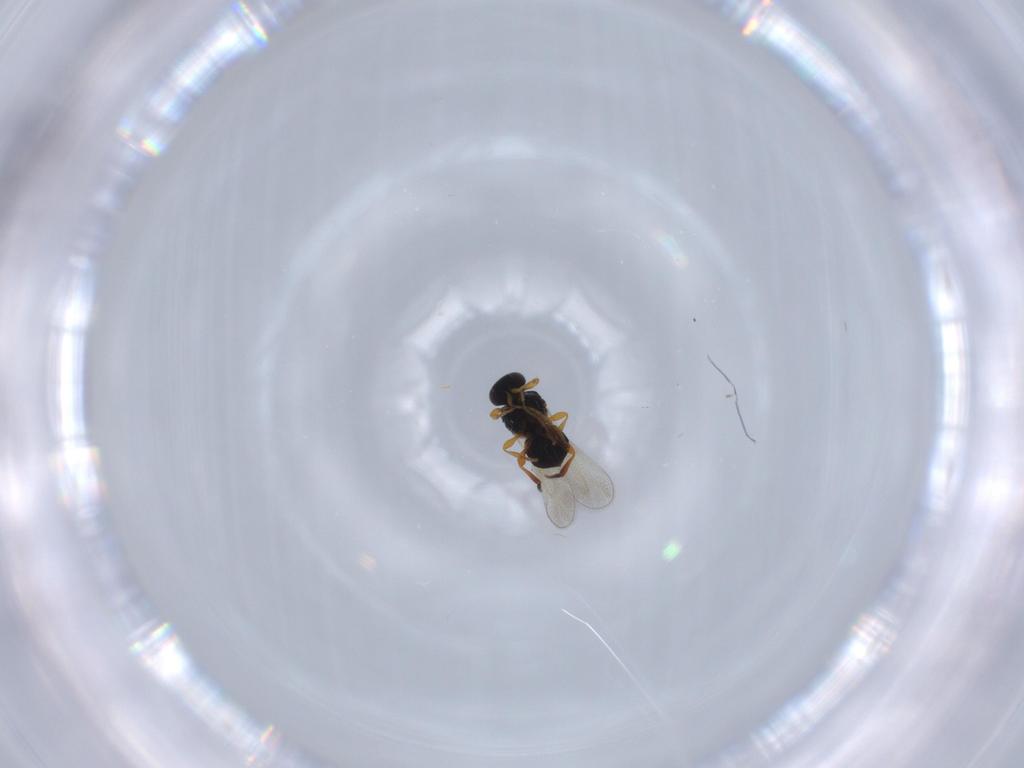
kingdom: Animalia
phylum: Arthropoda
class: Insecta
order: Hymenoptera
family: Platygastridae
